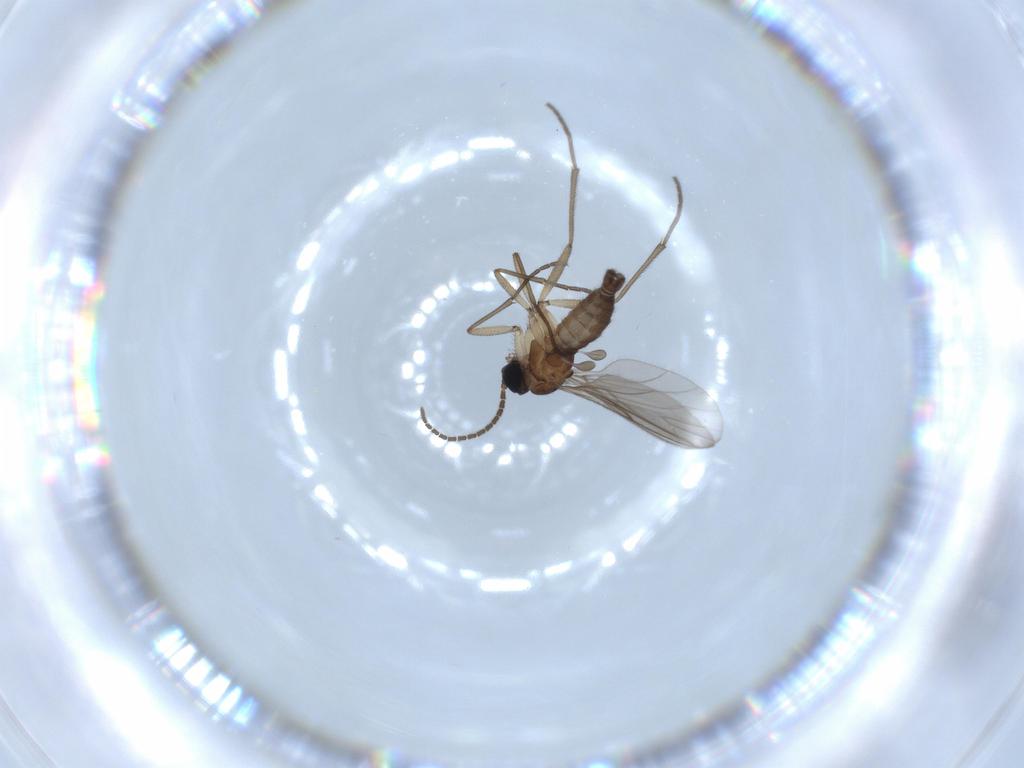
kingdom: Animalia
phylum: Arthropoda
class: Insecta
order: Diptera
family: Sciaridae
